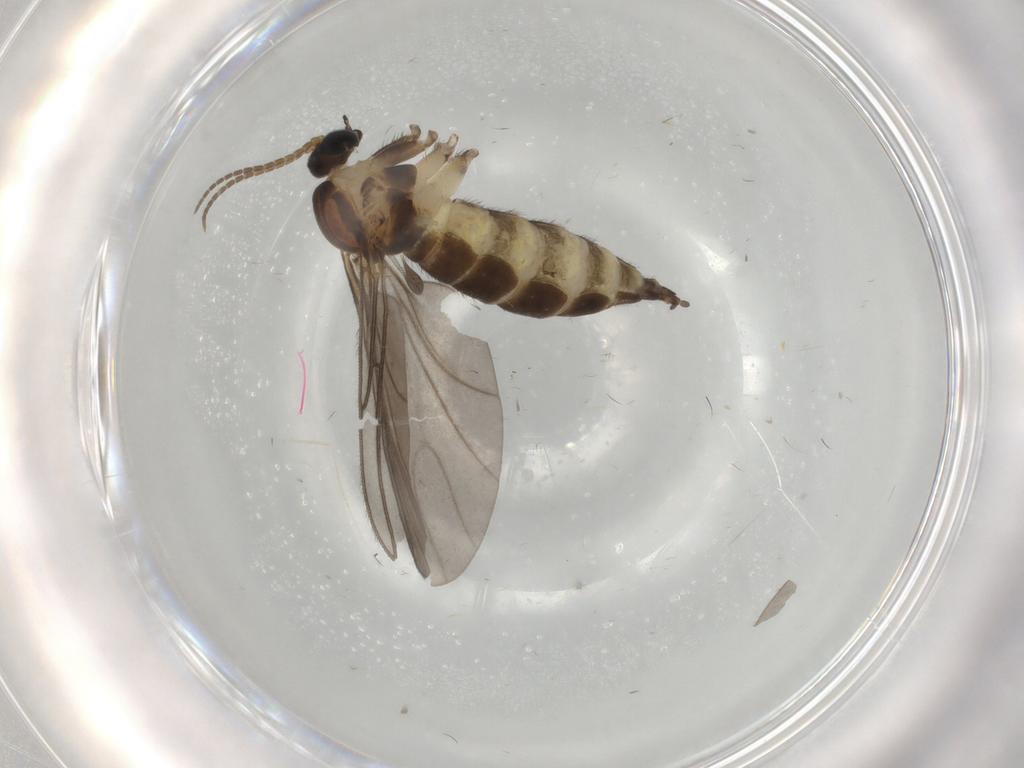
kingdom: Animalia
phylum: Arthropoda
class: Insecta
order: Diptera
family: Sciaridae
